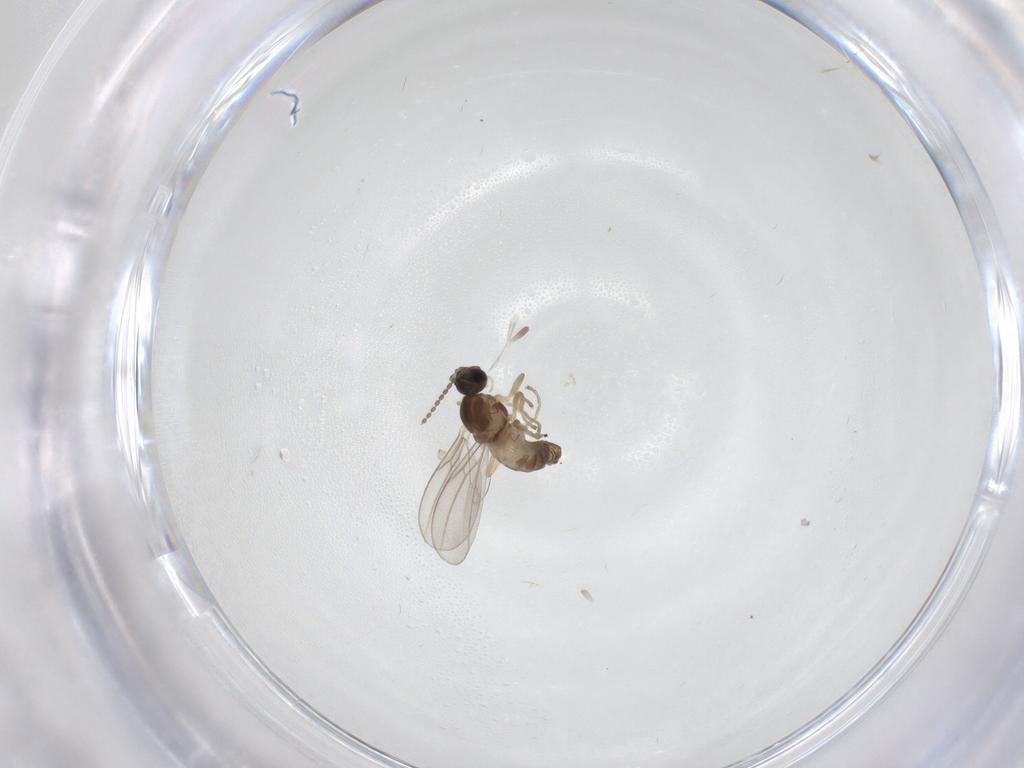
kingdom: Animalia
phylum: Arthropoda
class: Insecta
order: Diptera
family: Cecidomyiidae
